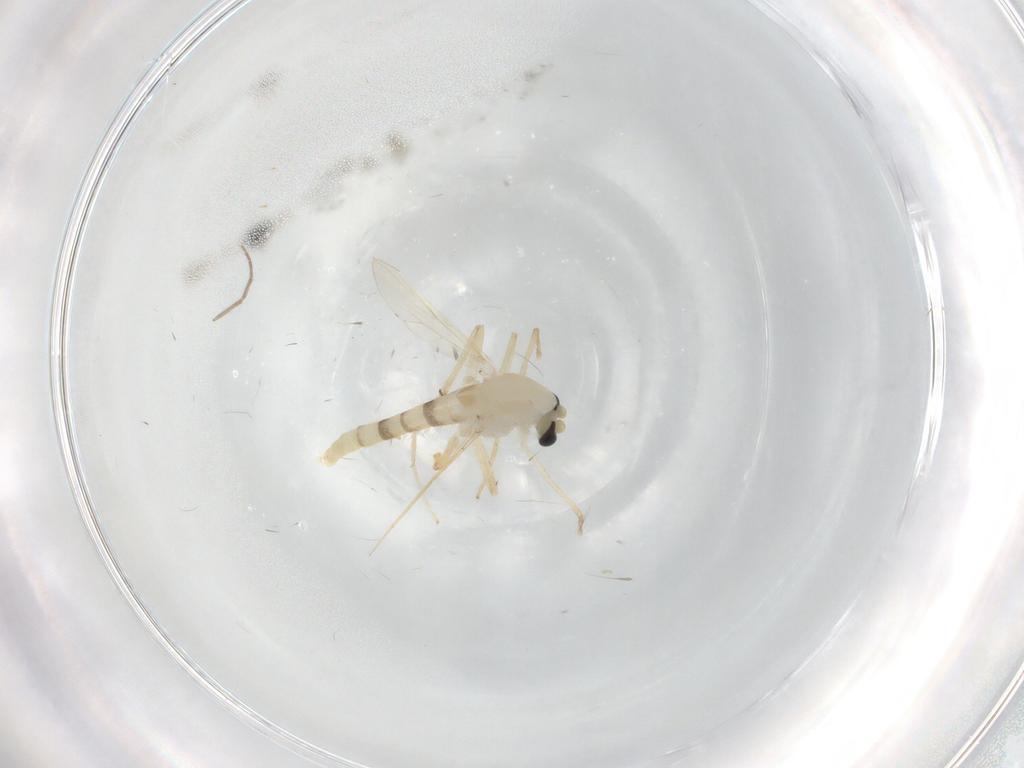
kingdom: Animalia
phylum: Arthropoda
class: Insecta
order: Diptera
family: Chironomidae
